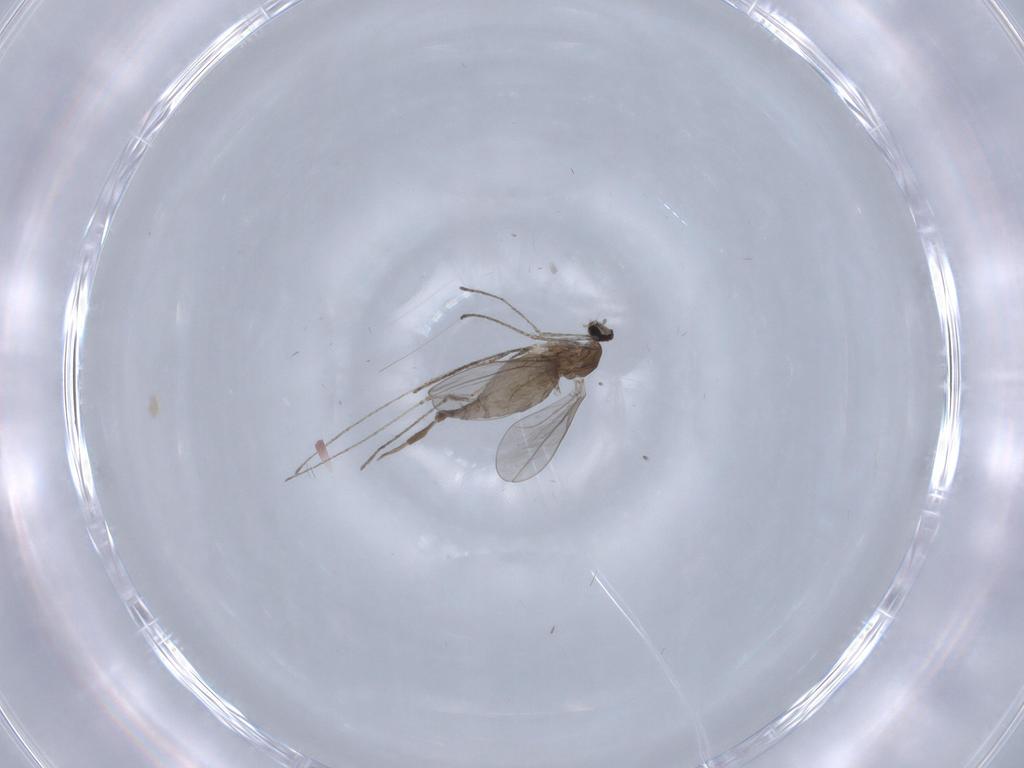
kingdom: Animalia
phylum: Arthropoda
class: Insecta
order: Diptera
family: Cecidomyiidae
